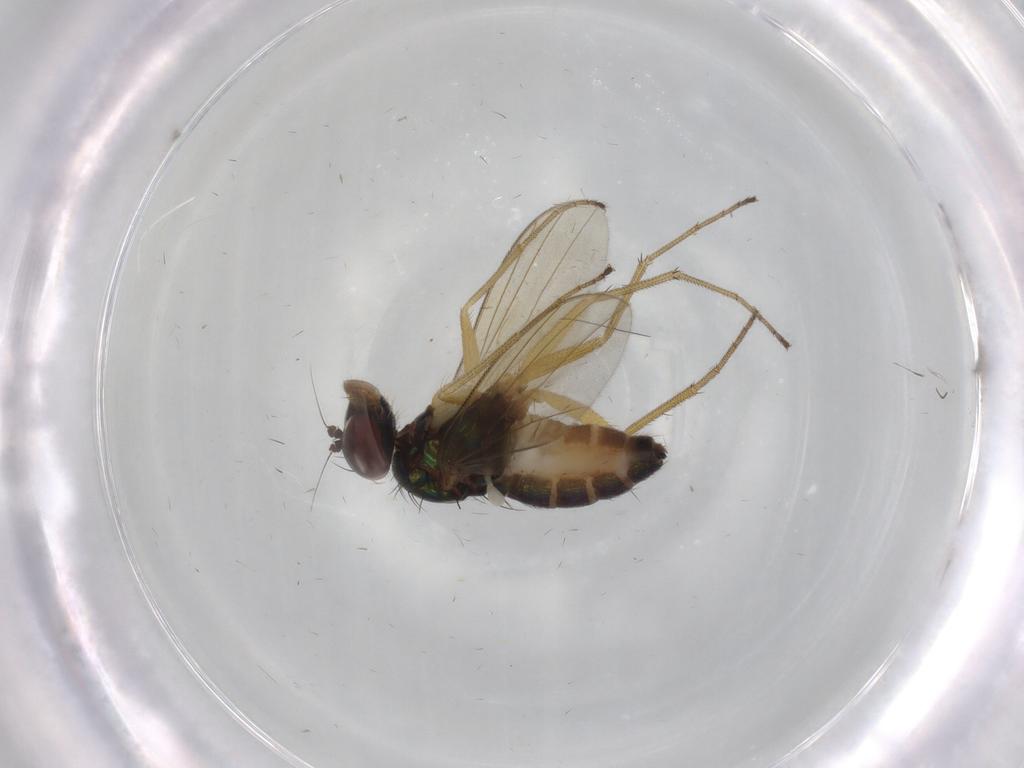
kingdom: Animalia
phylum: Arthropoda
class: Insecta
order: Diptera
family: Dolichopodidae
